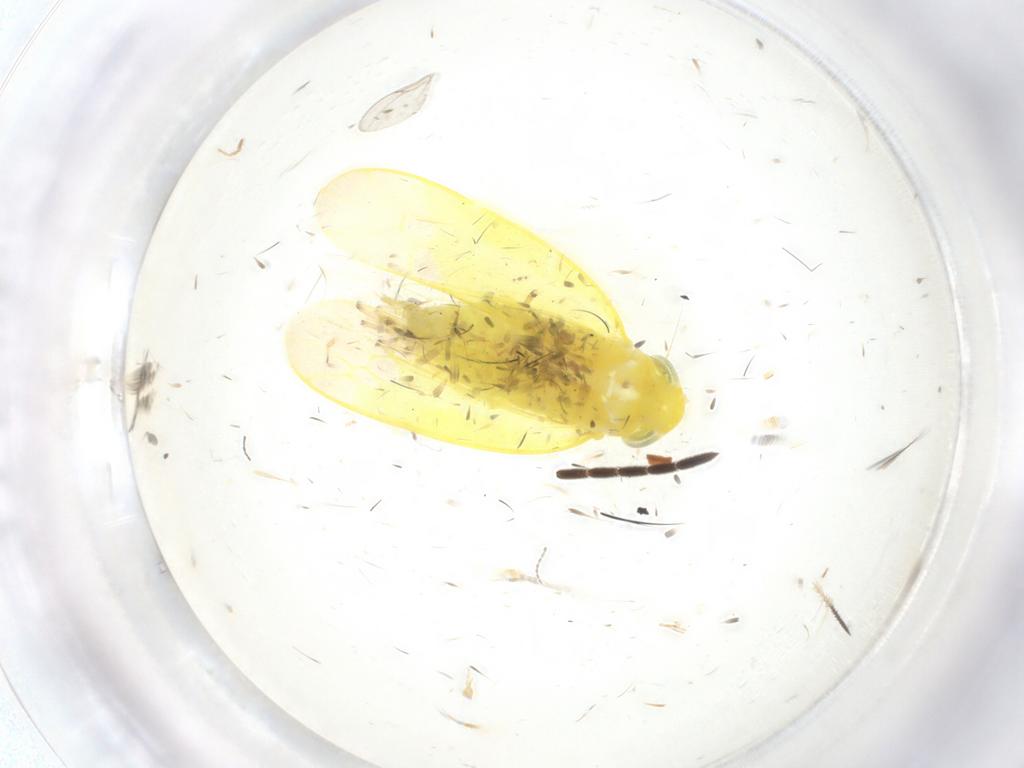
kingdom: Animalia
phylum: Arthropoda
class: Insecta
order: Hemiptera
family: Cicadellidae
